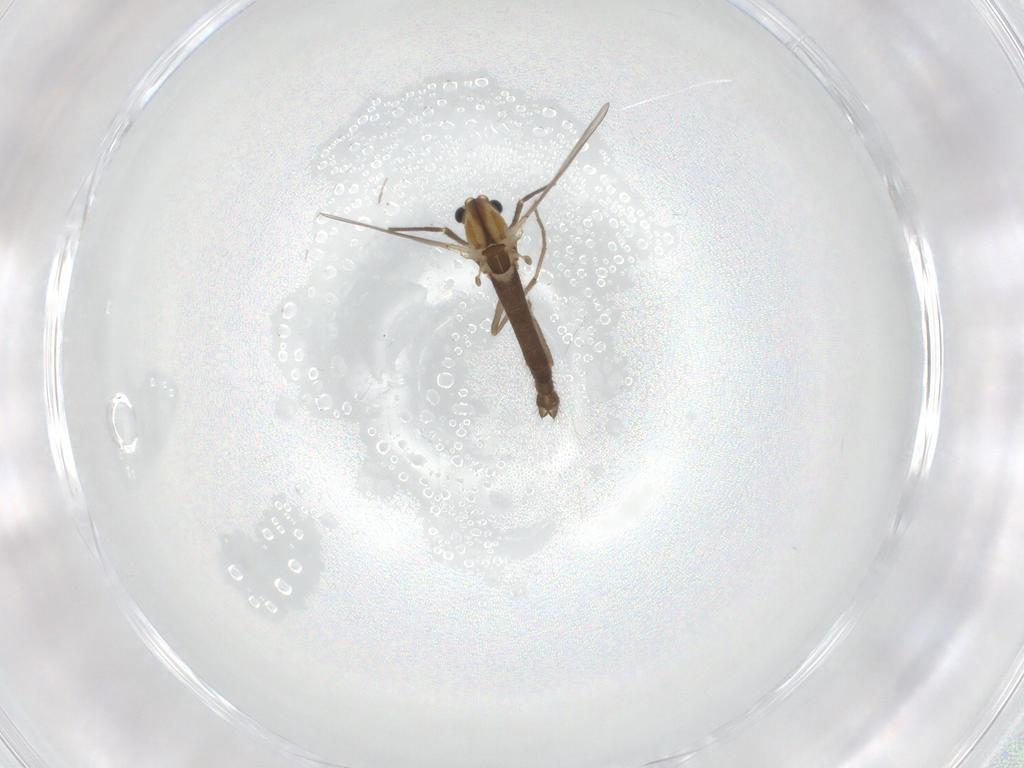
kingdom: Animalia
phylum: Arthropoda
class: Insecta
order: Diptera
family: Chironomidae
